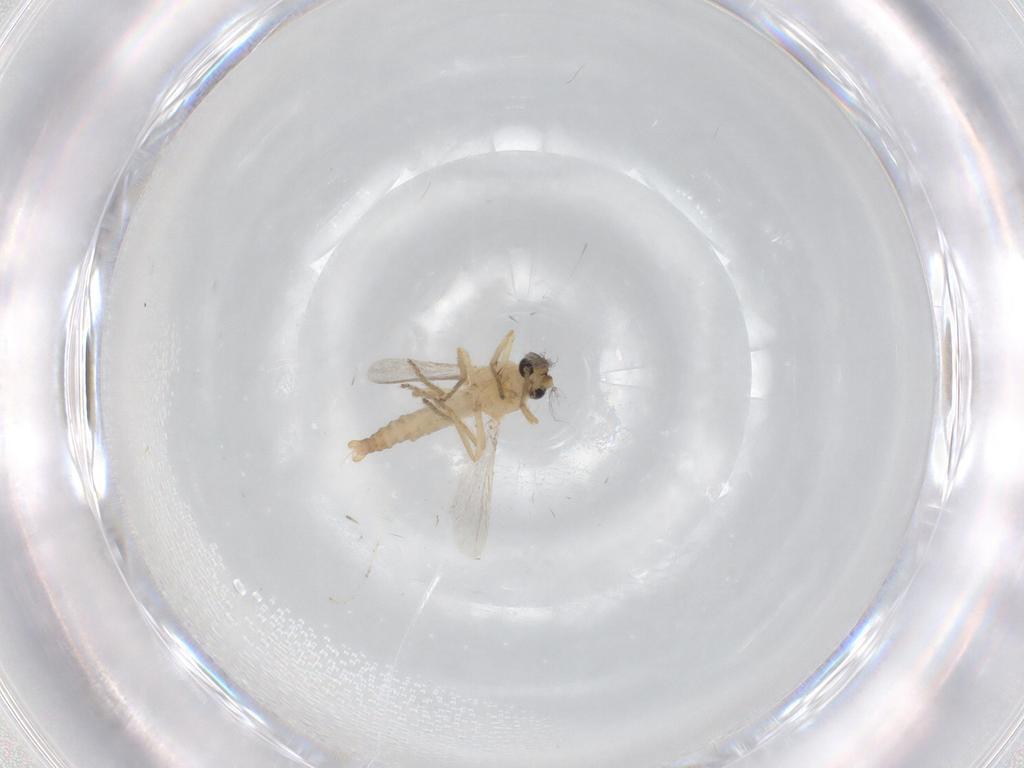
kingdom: Animalia
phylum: Arthropoda
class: Insecta
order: Diptera
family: Ceratopogonidae
